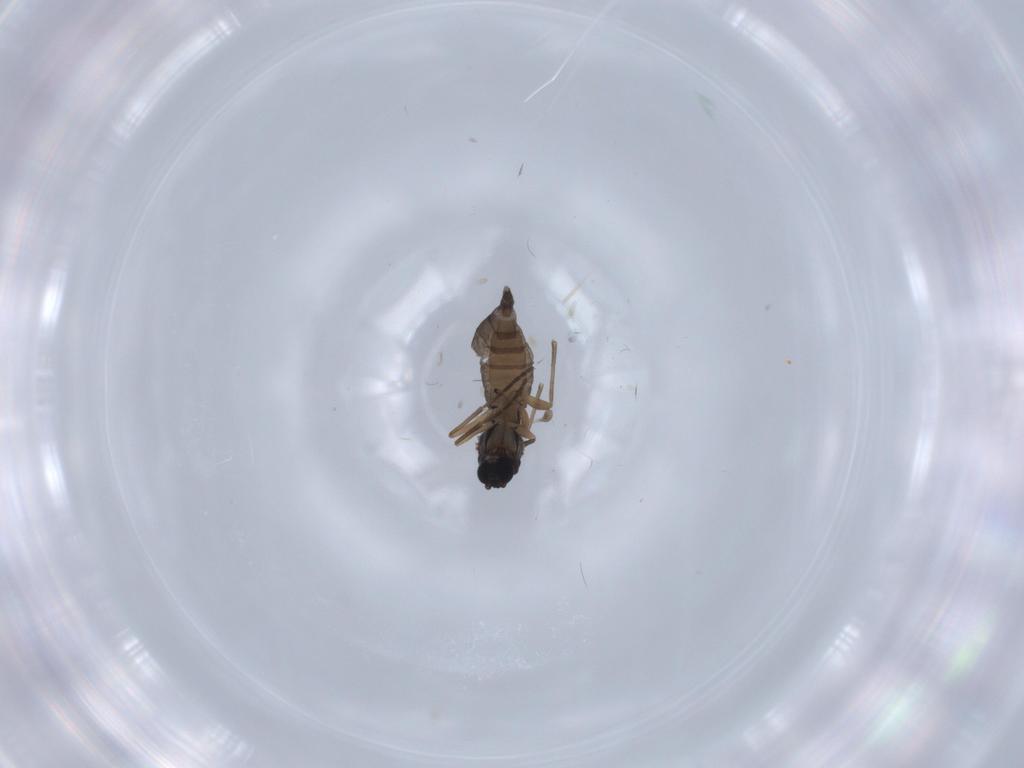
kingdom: Animalia
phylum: Arthropoda
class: Insecta
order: Diptera
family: Sciaridae
